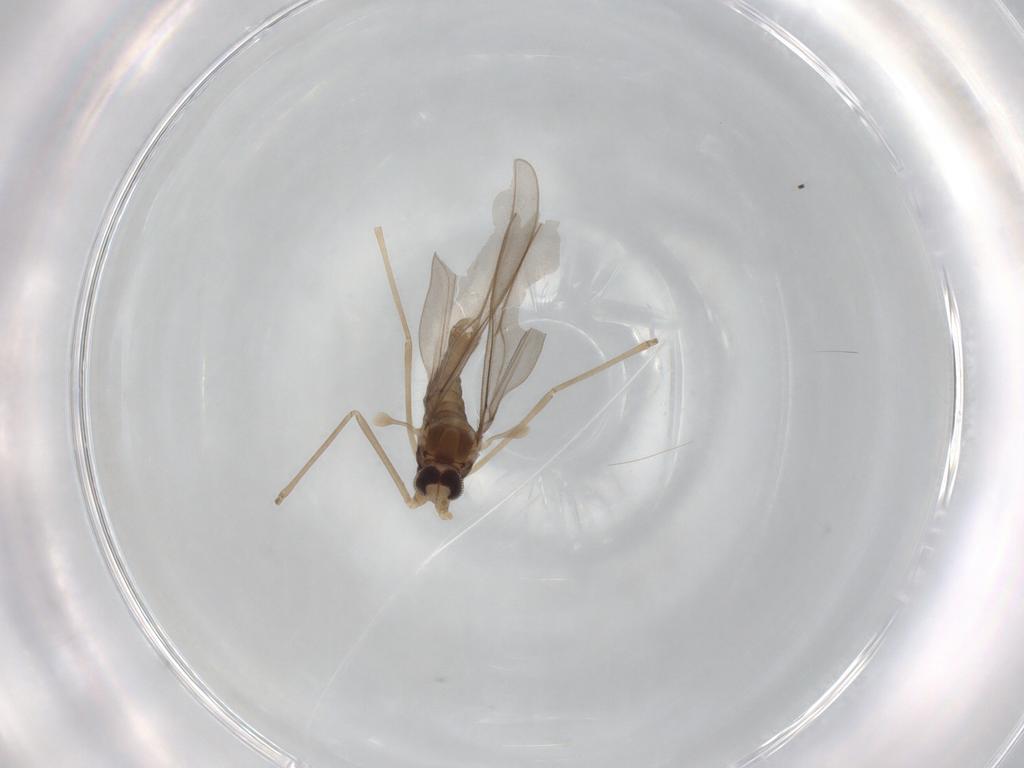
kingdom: Animalia
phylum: Arthropoda
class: Insecta
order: Diptera
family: Cecidomyiidae
